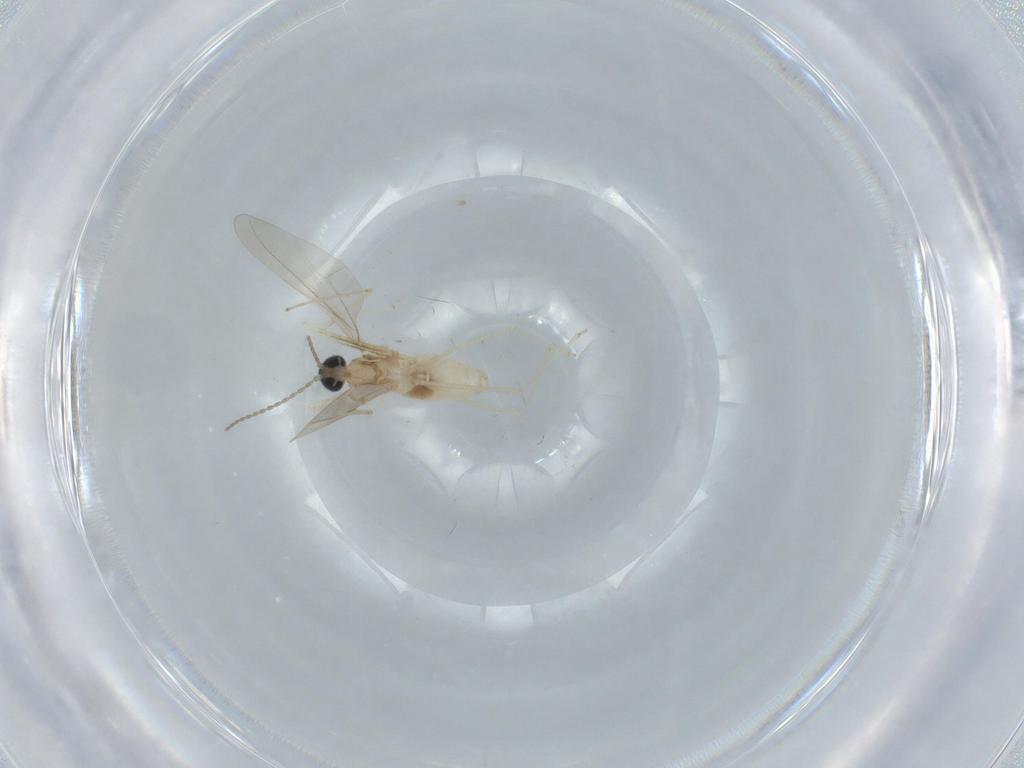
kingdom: Animalia
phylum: Arthropoda
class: Insecta
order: Diptera
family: Cecidomyiidae
